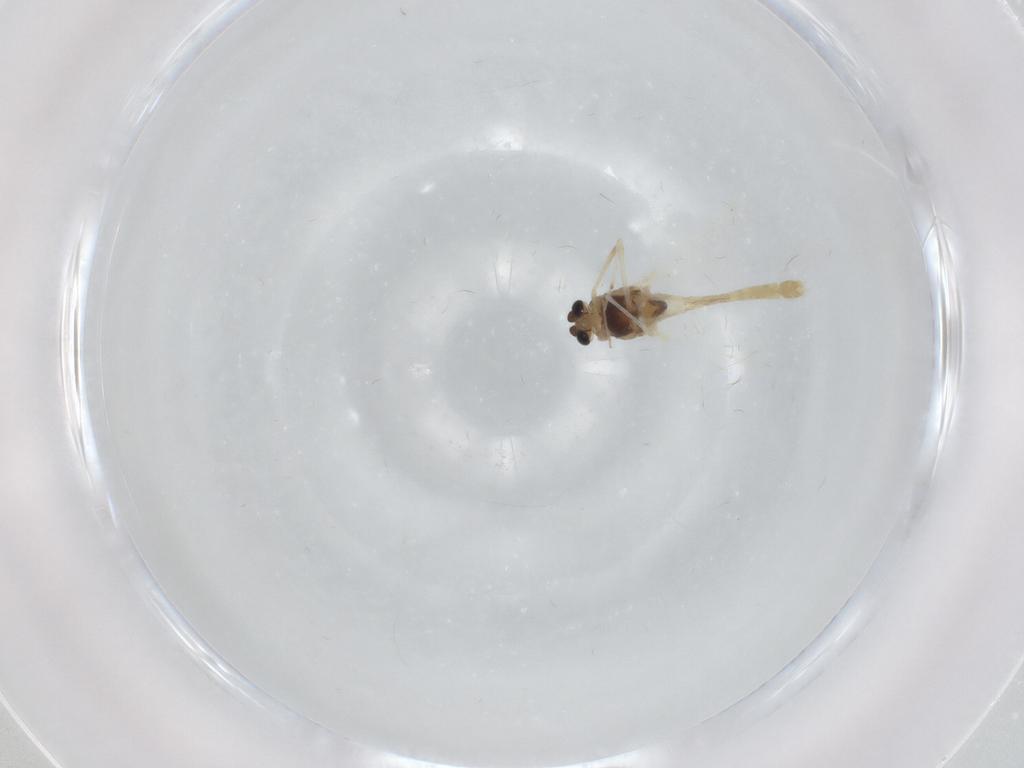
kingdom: Animalia
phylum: Arthropoda
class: Insecta
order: Diptera
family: Chironomidae
